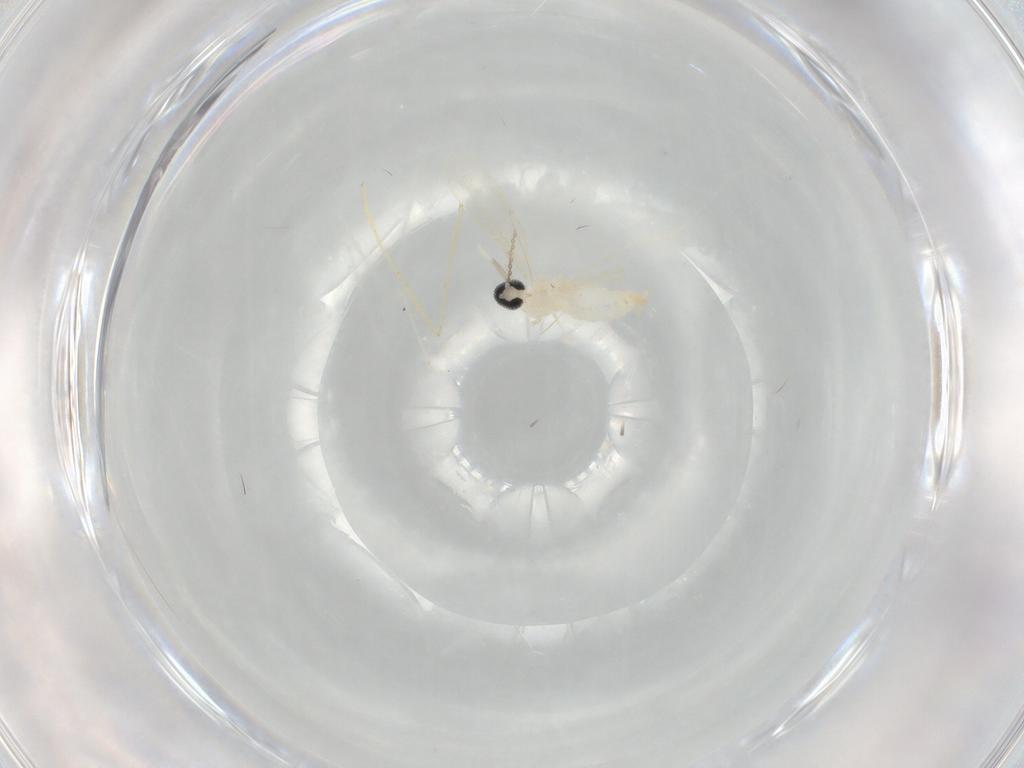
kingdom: Animalia
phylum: Arthropoda
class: Insecta
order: Diptera
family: Cecidomyiidae
